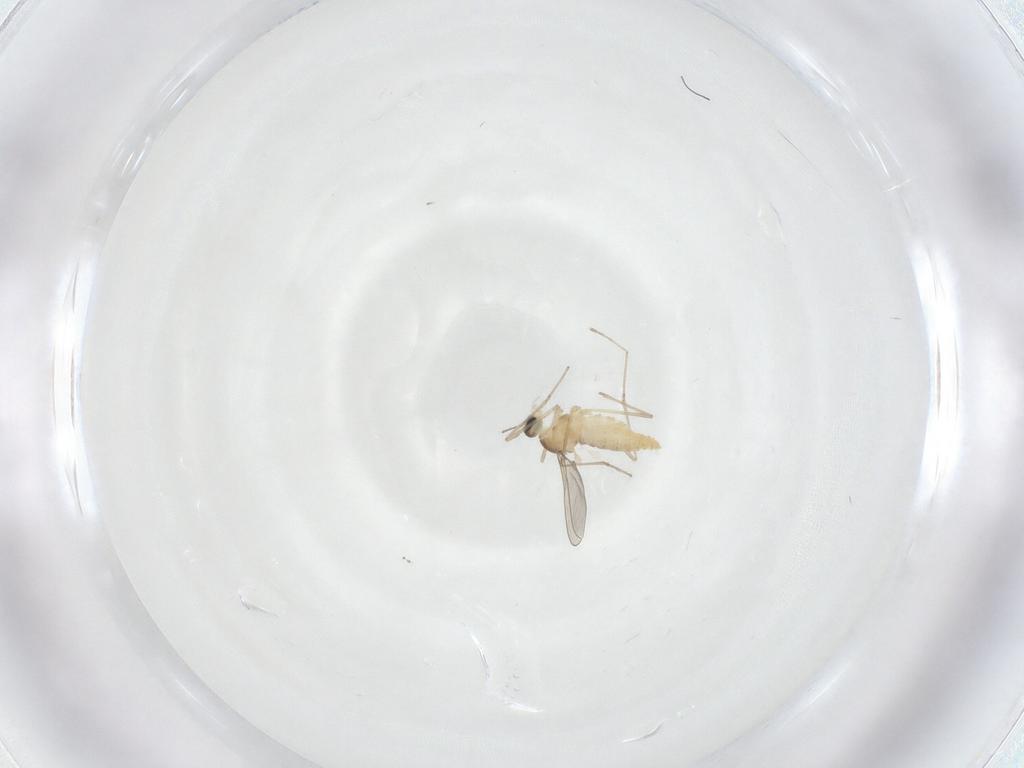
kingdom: Animalia
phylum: Arthropoda
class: Insecta
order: Diptera
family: Cecidomyiidae
